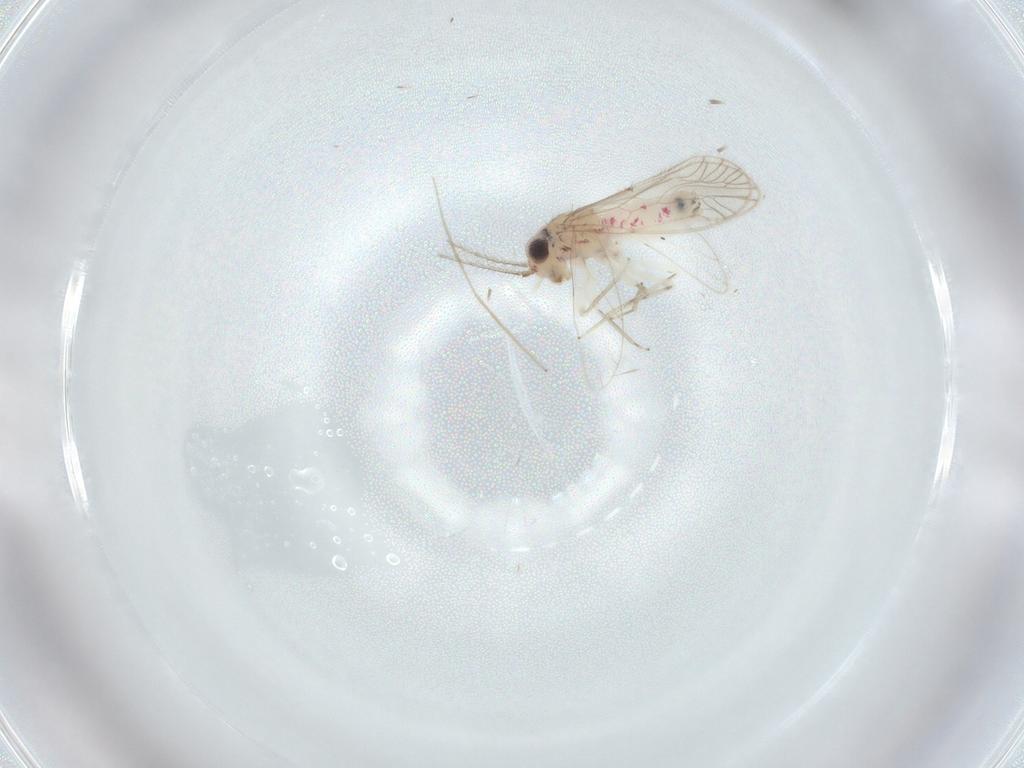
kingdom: Animalia
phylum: Arthropoda
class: Insecta
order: Psocodea
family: Caeciliusidae
